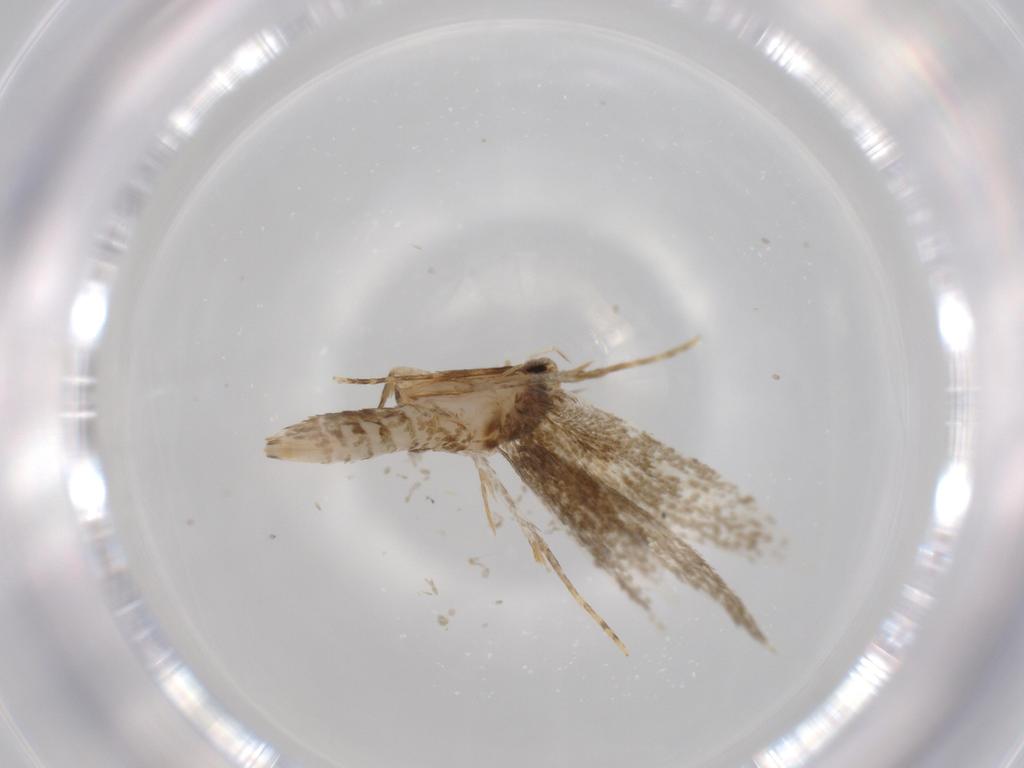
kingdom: Animalia
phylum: Arthropoda
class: Insecta
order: Lepidoptera
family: Tineidae
